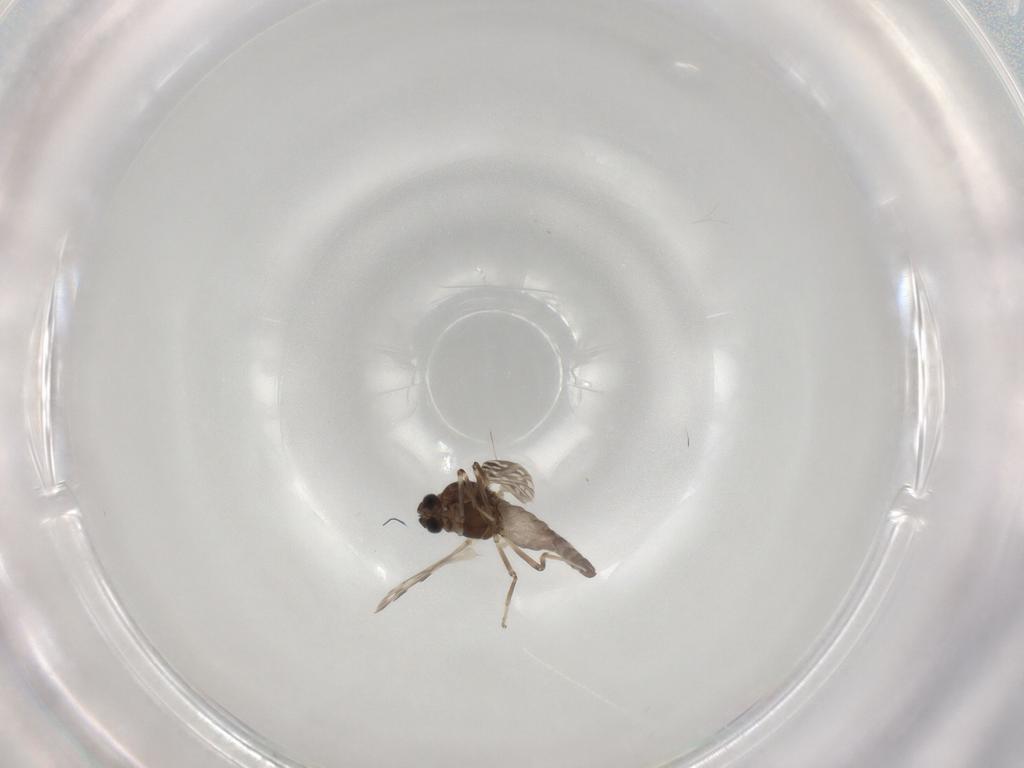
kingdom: Animalia
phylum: Arthropoda
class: Insecta
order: Diptera
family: Ceratopogonidae
